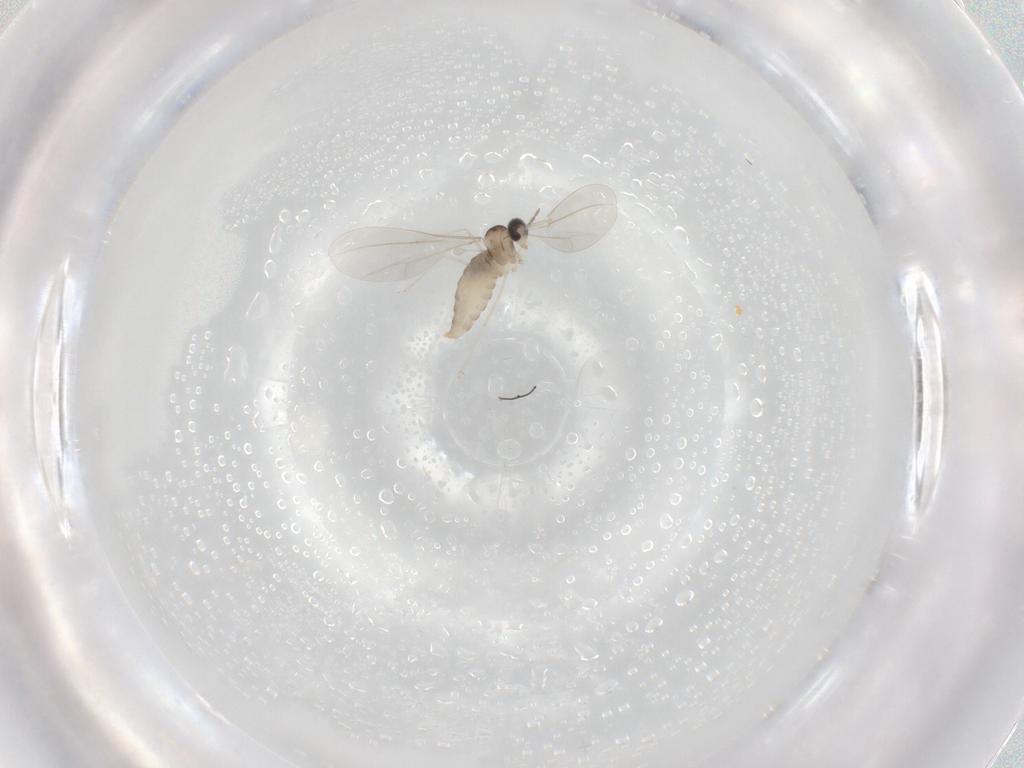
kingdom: Animalia
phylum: Arthropoda
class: Insecta
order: Diptera
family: Cecidomyiidae
